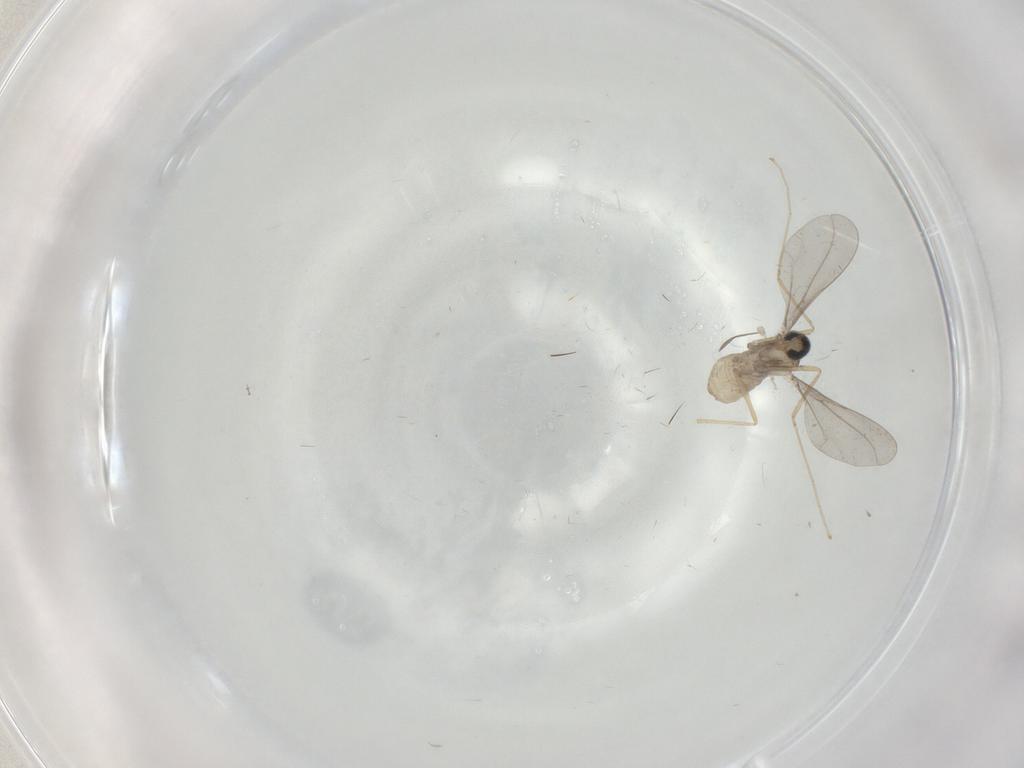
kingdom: Animalia
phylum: Arthropoda
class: Insecta
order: Diptera
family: Cecidomyiidae
